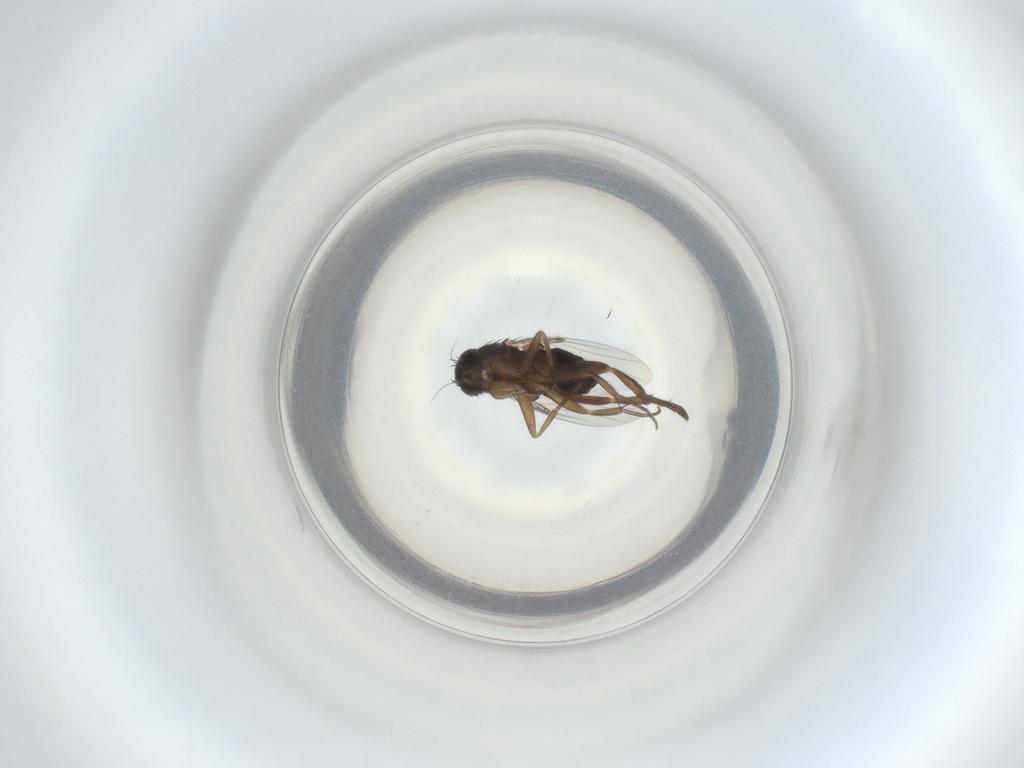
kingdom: Animalia
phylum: Arthropoda
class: Insecta
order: Diptera
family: Phoridae
